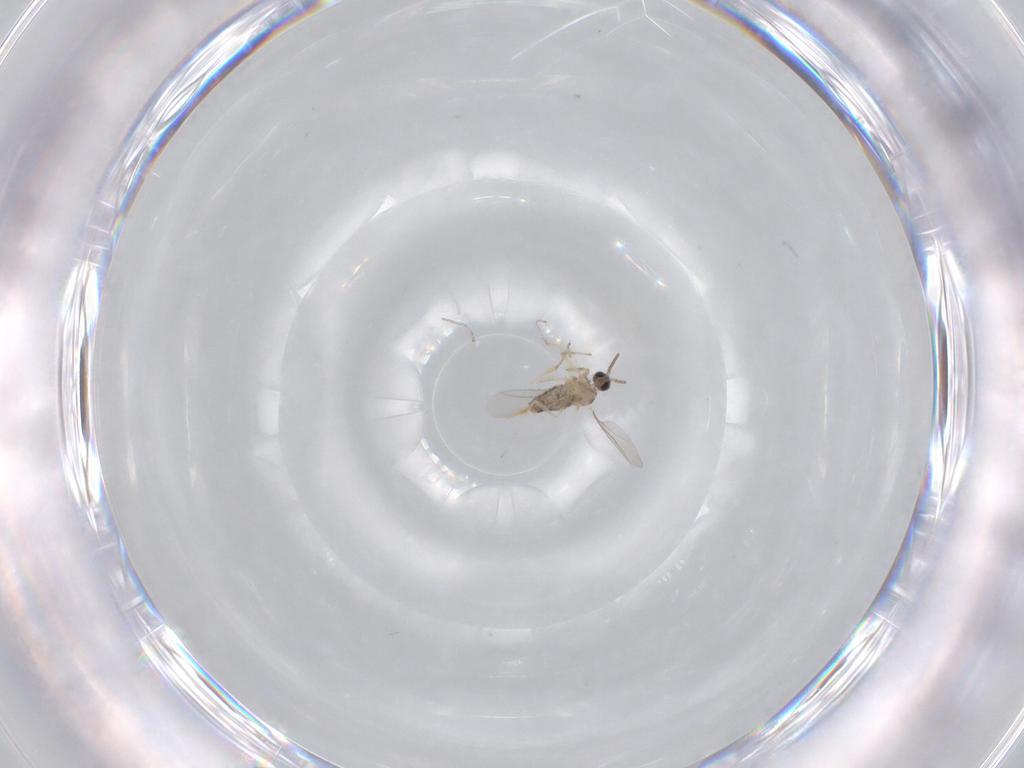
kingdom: Animalia
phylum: Arthropoda
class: Insecta
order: Diptera
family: Cecidomyiidae
